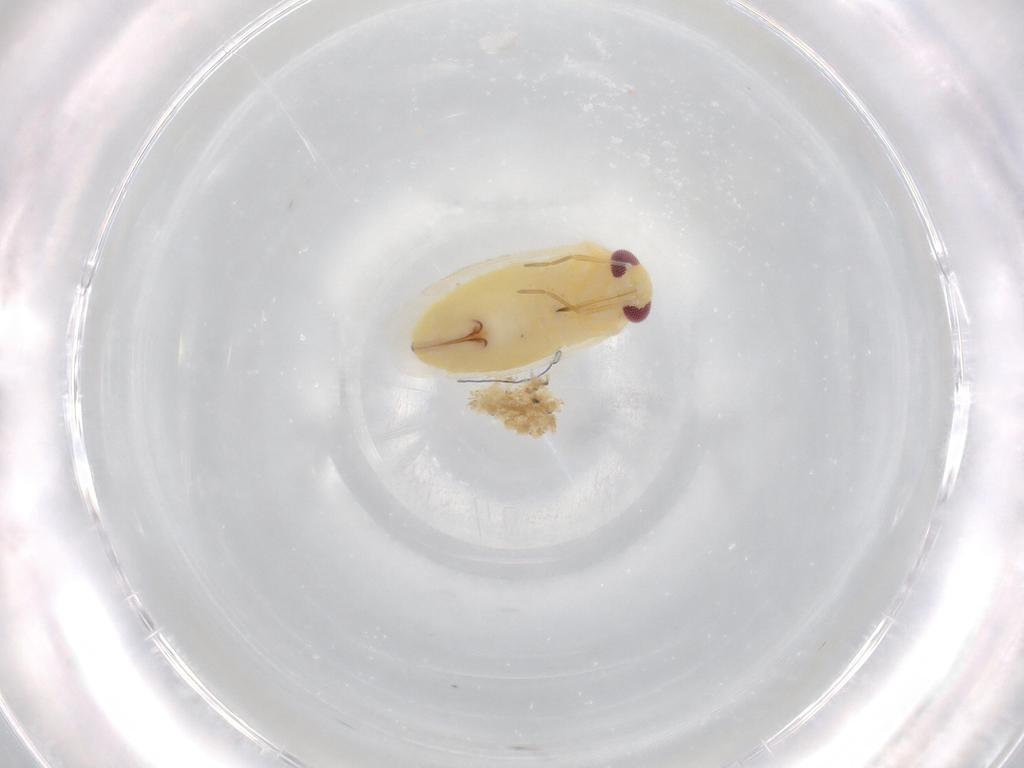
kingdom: Animalia
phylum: Arthropoda
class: Insecta
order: Hemiptera
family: Miridae
